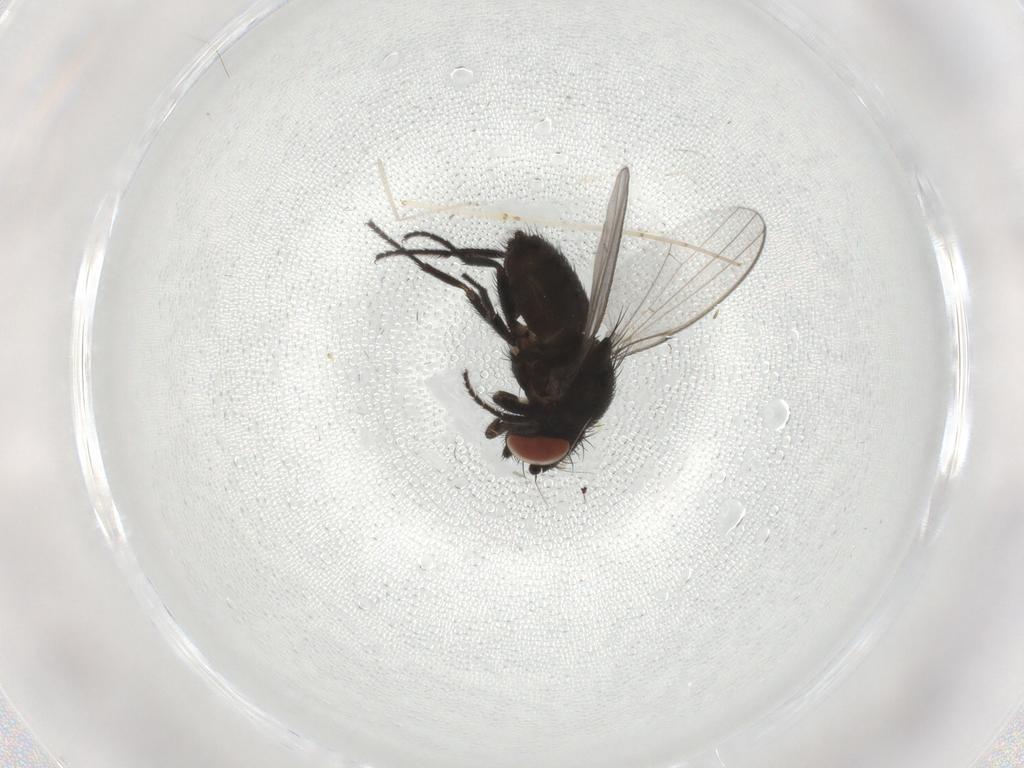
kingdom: Animalia
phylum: Arthropoda
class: Insecta
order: Diptera
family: Milichiidae
